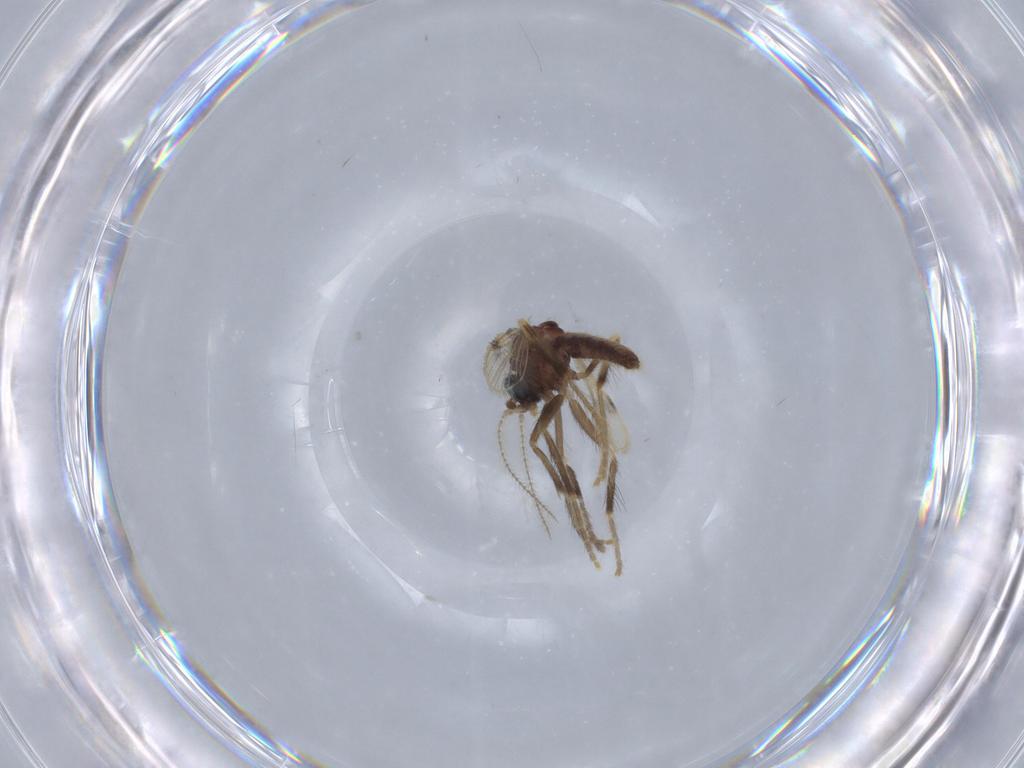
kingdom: Animalia
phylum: Arthropoda
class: Insecta
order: Diptera
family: Corethrellidae
